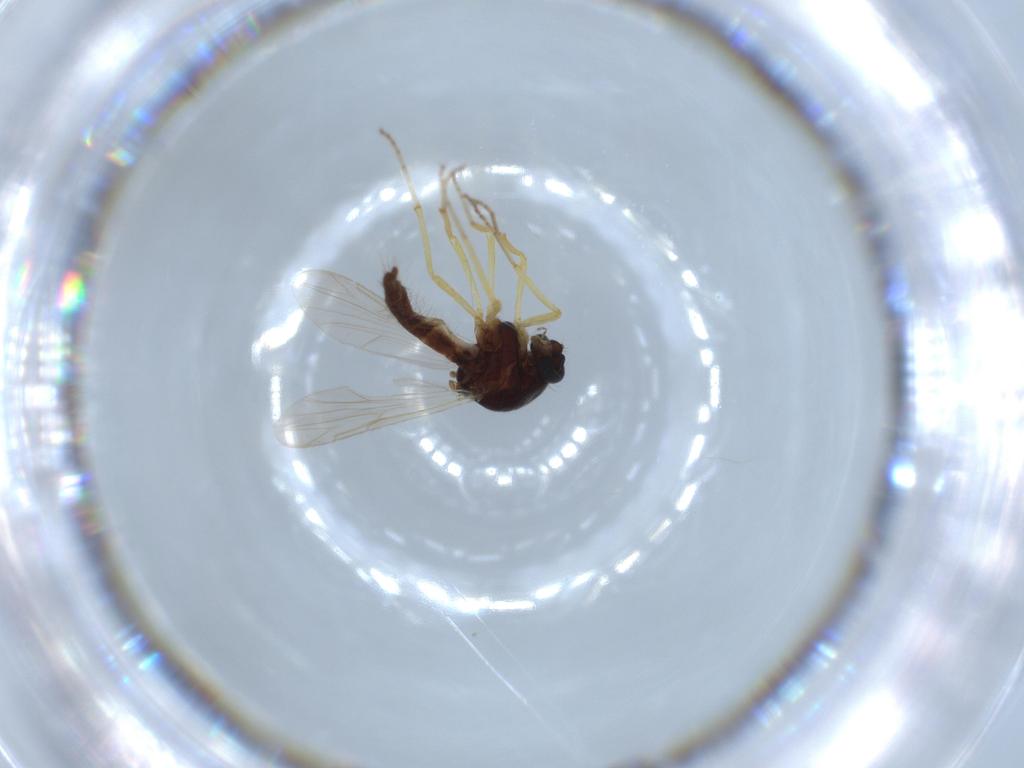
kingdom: Animalia
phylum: Arthropoda
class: Insecta
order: Diptera
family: Ceratopogonidae
